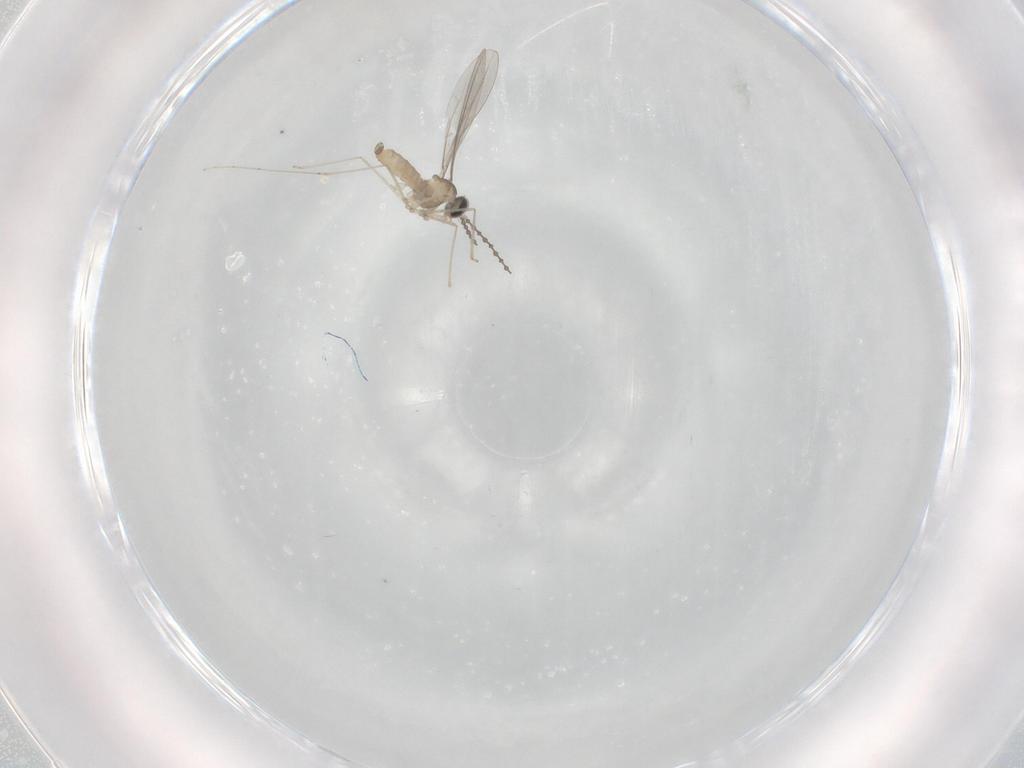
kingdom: Animalia
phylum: Arthropoda
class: Insecta
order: Diptera
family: Cecidomyiidae
